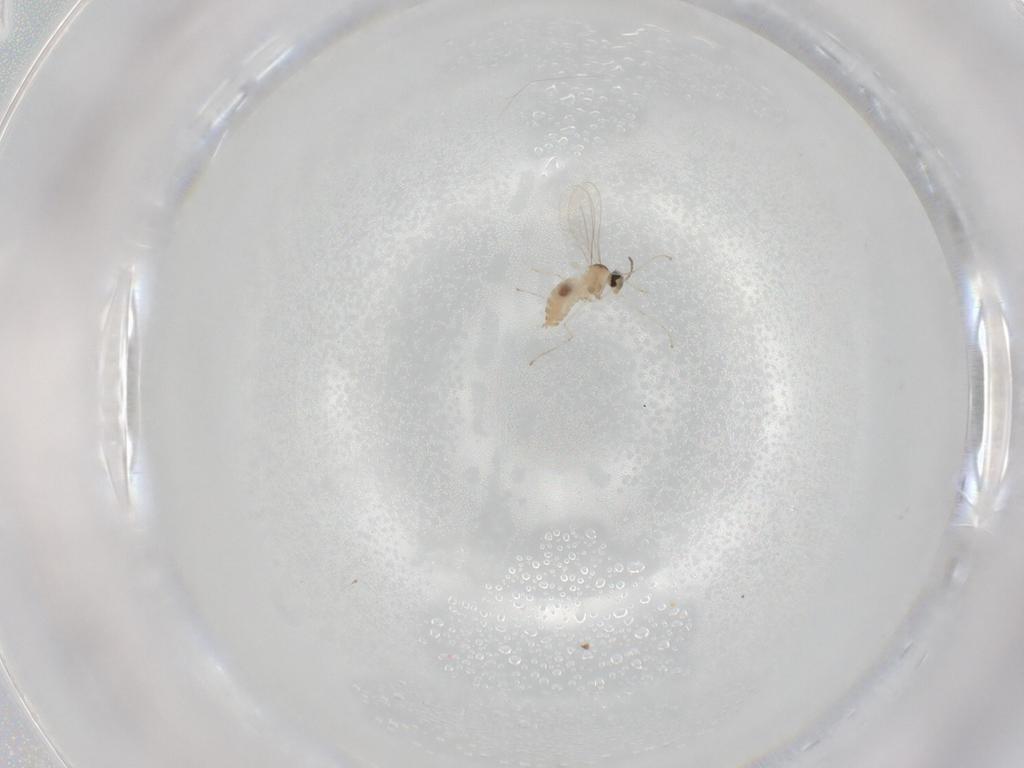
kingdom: Animalia
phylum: Arthropoda
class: Insecta
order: Diptera
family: Cecidomyiidae
